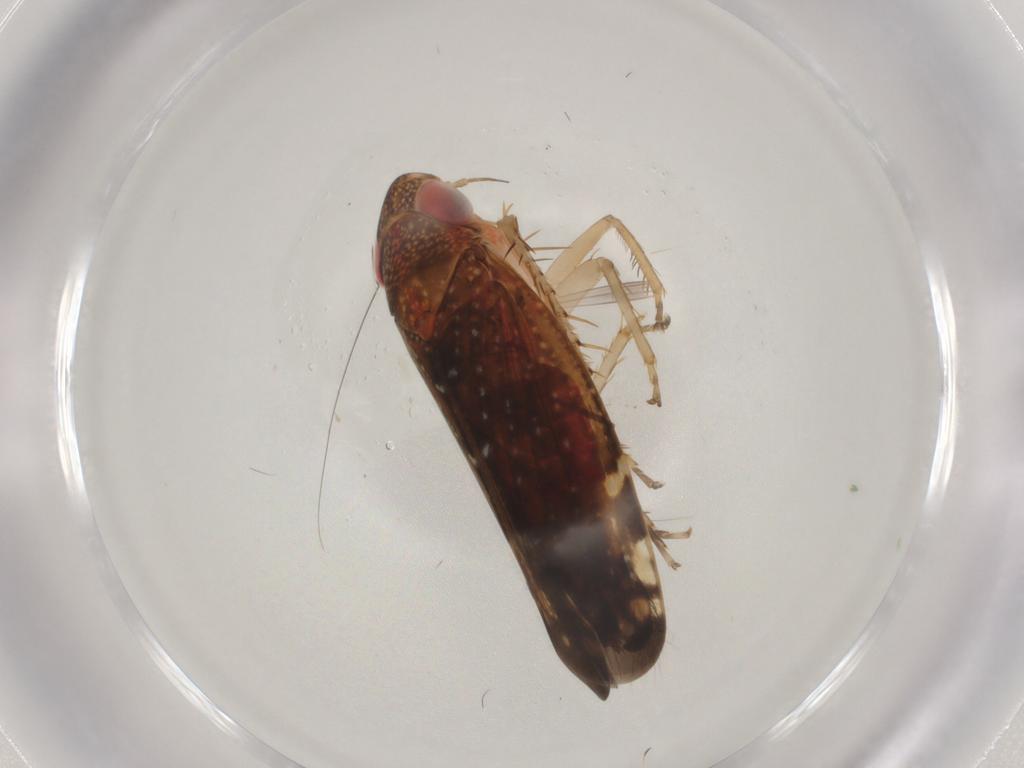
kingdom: Animalia
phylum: Arthropoda
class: Insecta
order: Hemiptera
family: Cicadellidae
